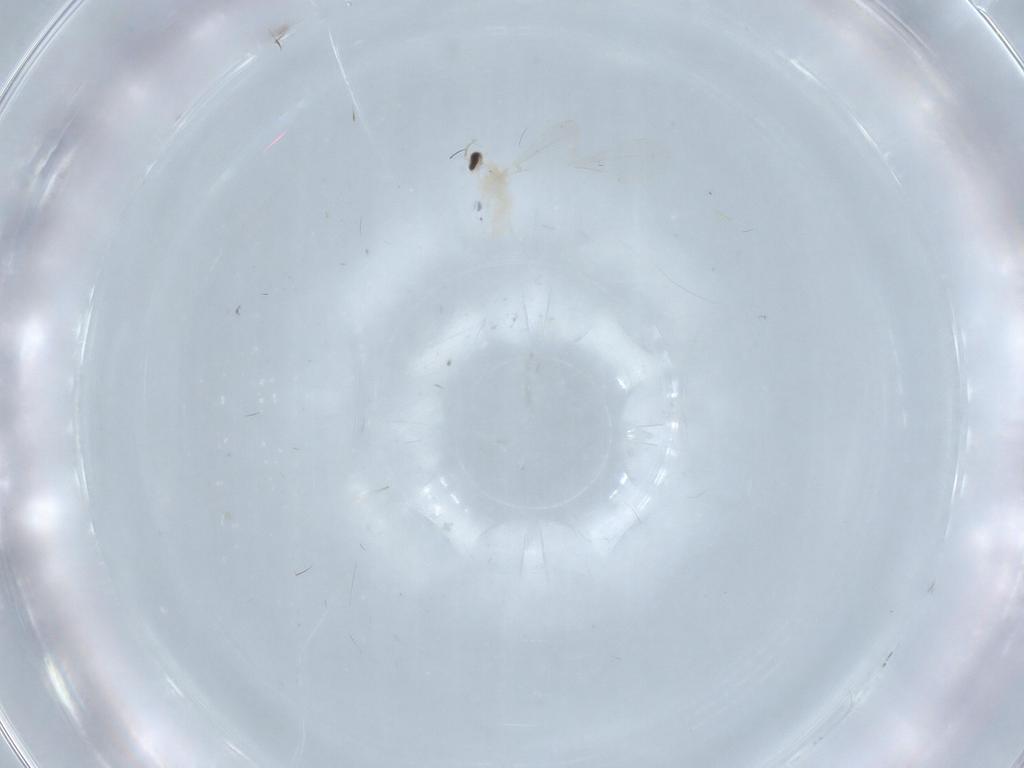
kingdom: Animalia
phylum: Arthropoda
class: Insecta
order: Diptera
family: Cecidomyiidae
